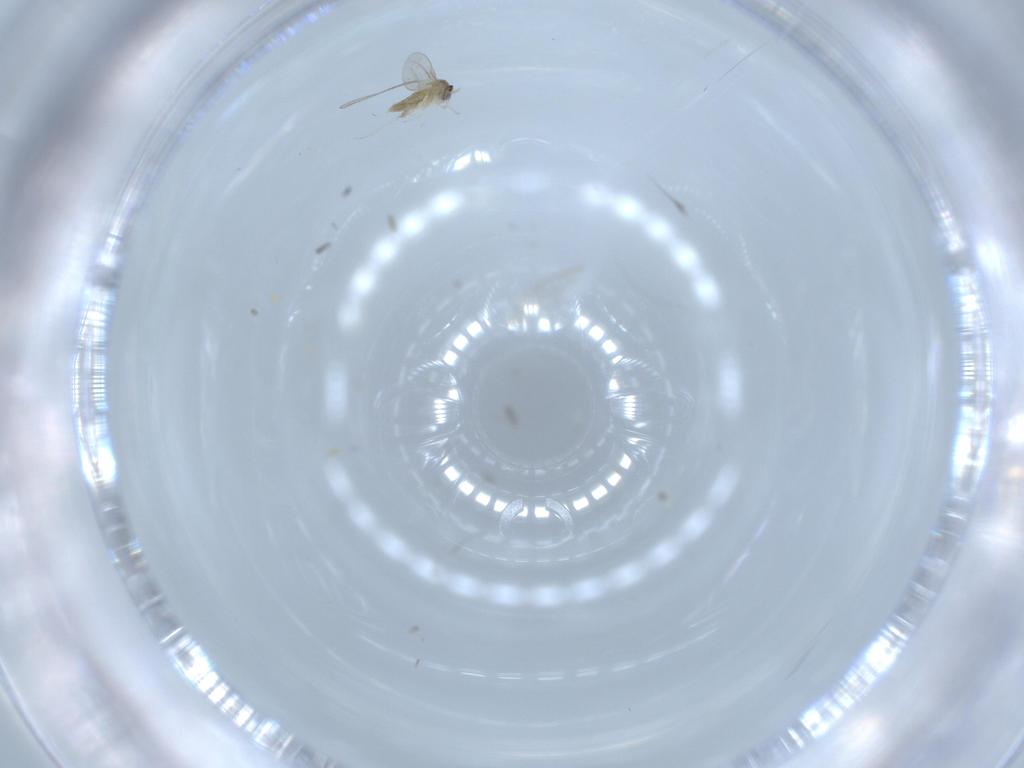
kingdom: Animalia
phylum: Arthropoda
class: Insecta
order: Diptera
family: Cecidomyiidae
